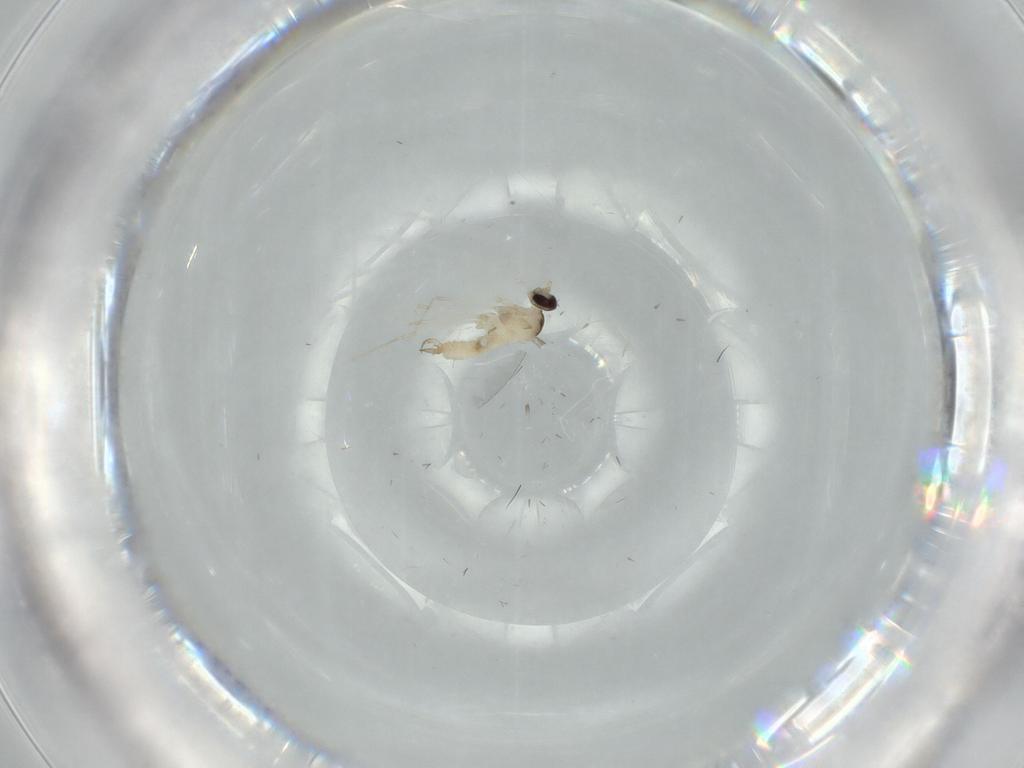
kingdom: Animalia
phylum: Arthropoda
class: Insecta
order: Diptera
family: Cecidomyiidae
